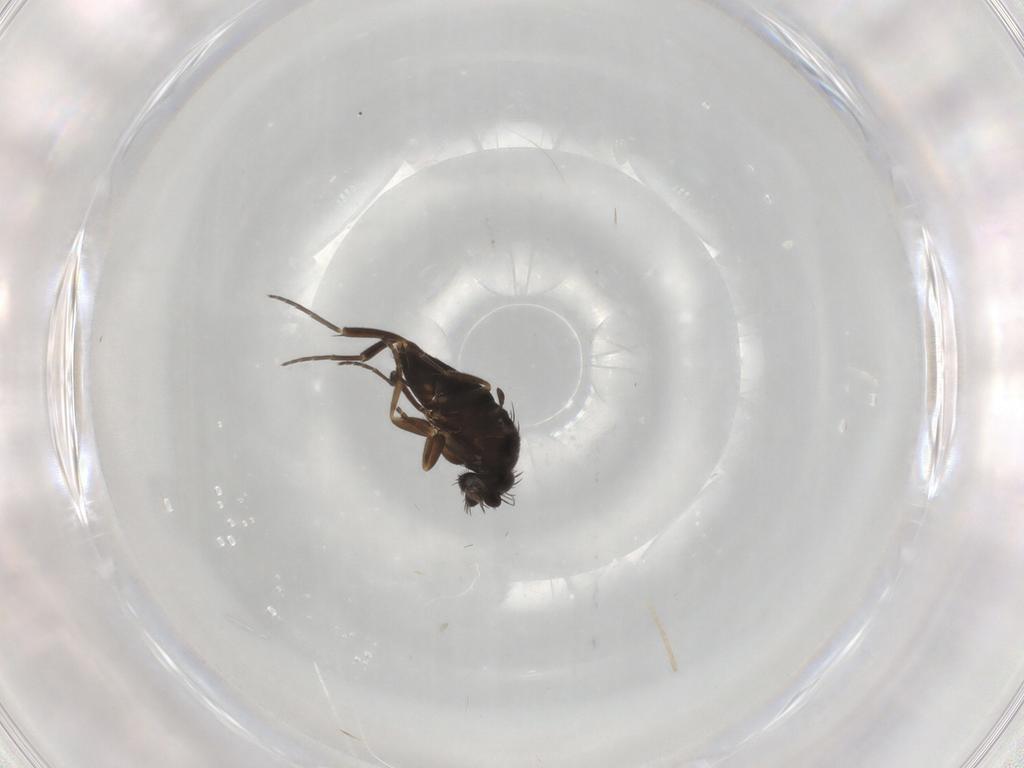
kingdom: Animalia
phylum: Arthropoda
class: Insecta
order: Diptera
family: Phoridae
